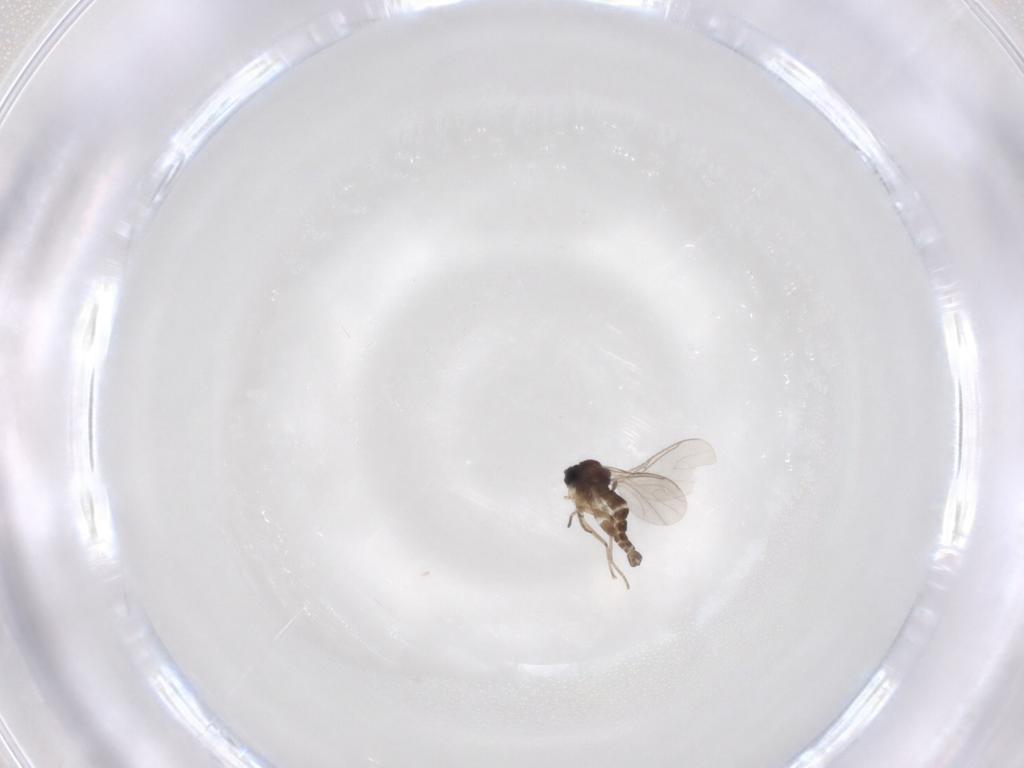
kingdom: Animalia
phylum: Arthropoda
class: Insecta
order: Diptera
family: Sciaridae
